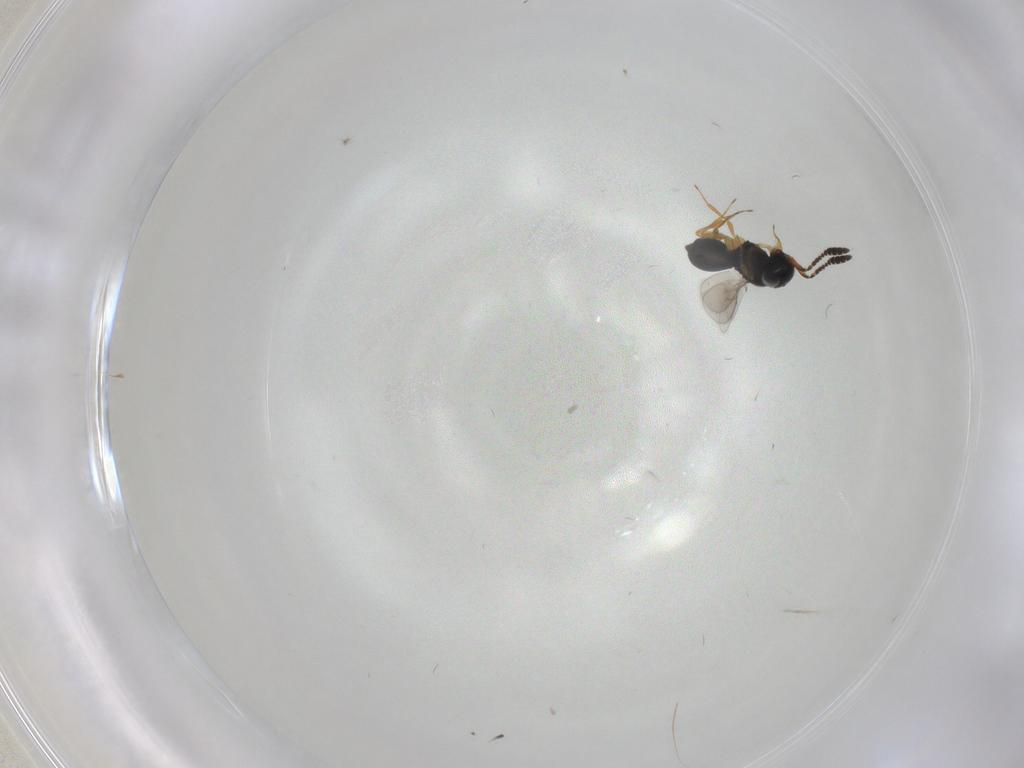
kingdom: Animalia
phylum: Arthropoda
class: Insecta
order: Hymenoptera
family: Scelionidae
